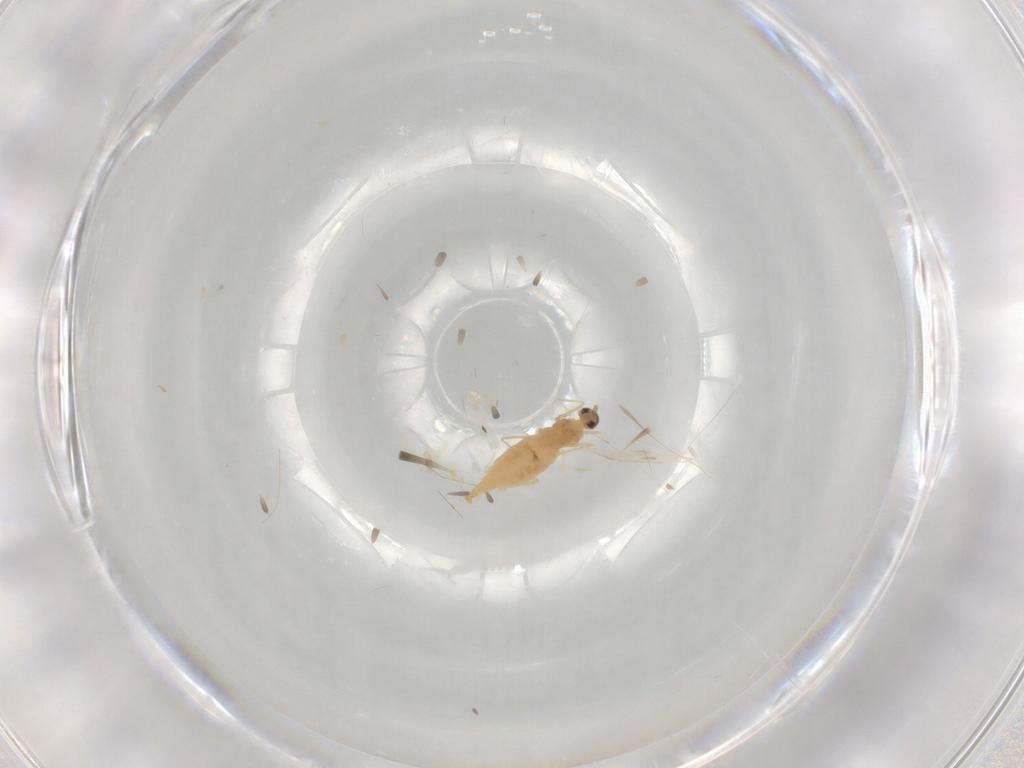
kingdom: Animalia
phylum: Arthropoda
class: Insecta
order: Diptera
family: Cecidomyiidae
